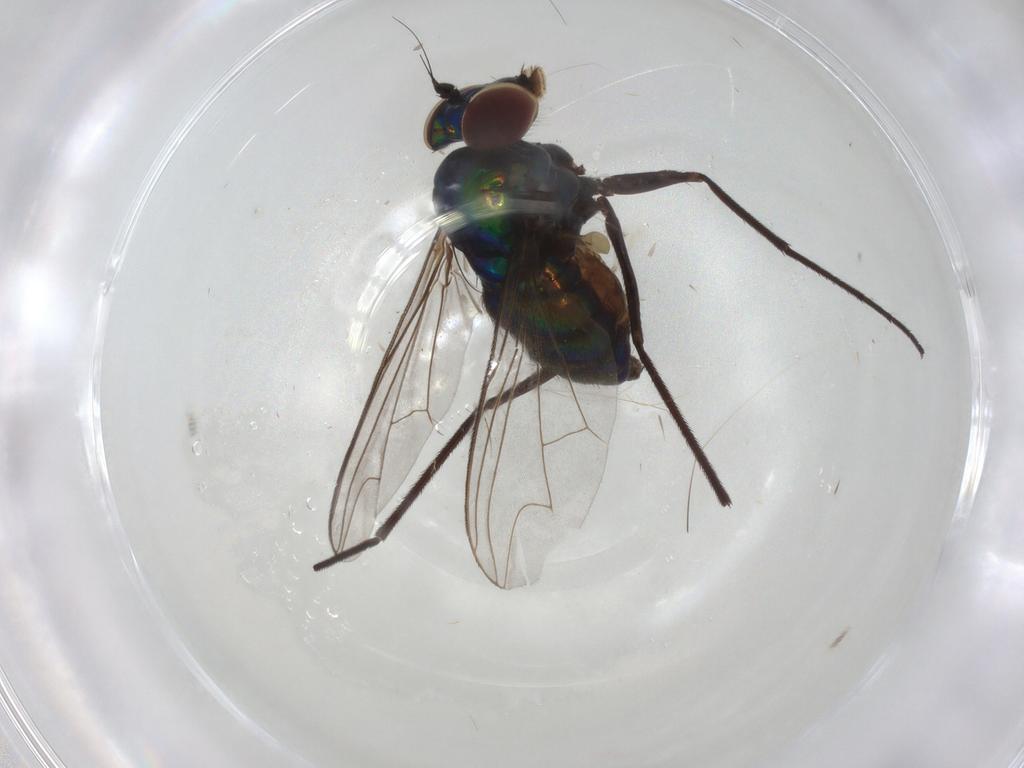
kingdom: Animalia
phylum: Arthropoda
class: Insecta
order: Diptera
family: Dolichopodidae
